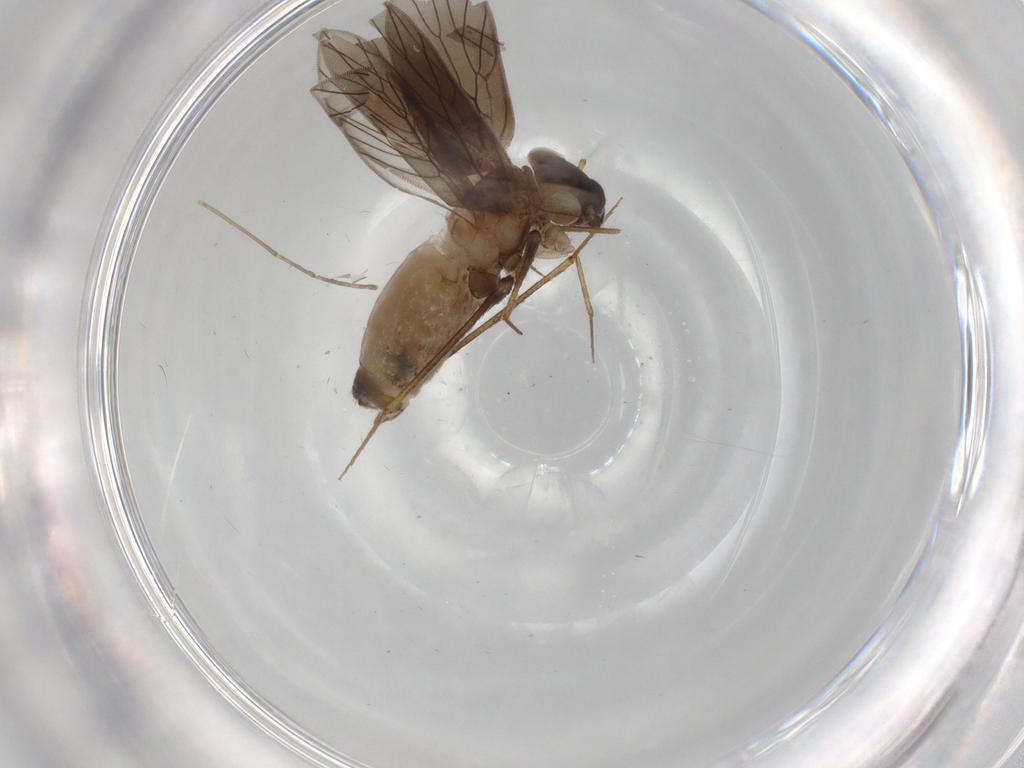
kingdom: Animalia
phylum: Arthropoda
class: Insecta
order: Psocodea
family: Lepidopsocidae
